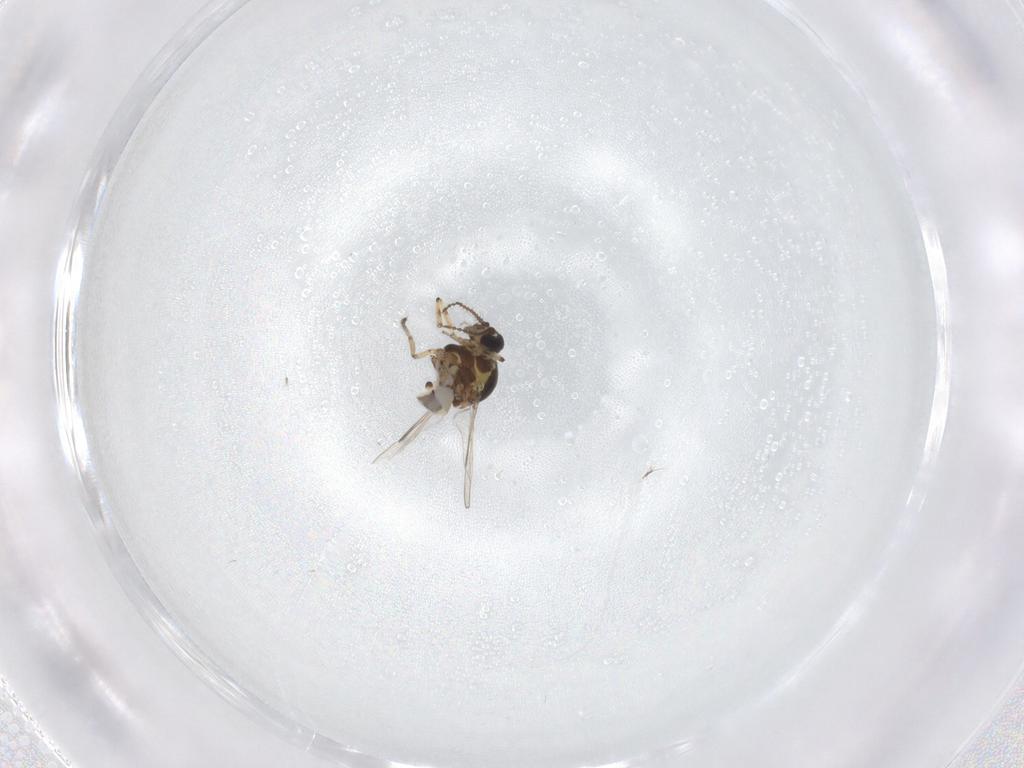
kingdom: Animalia
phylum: Arthropoda
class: Insecta
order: Diptera
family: Ceratopogonidae
